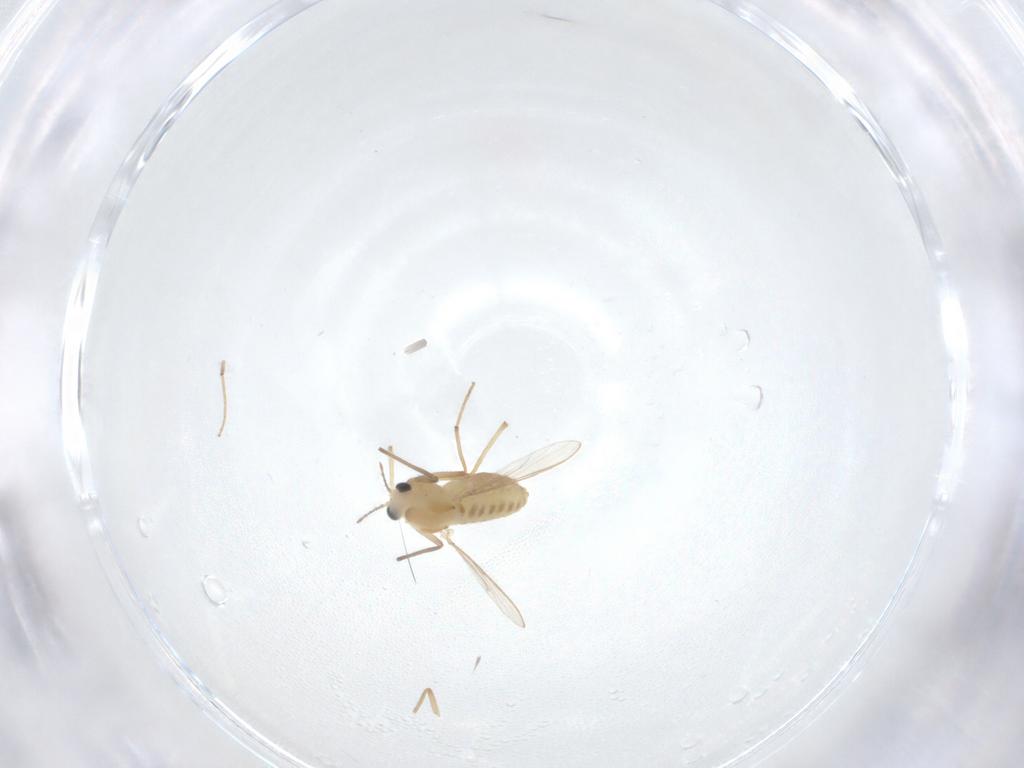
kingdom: Animalia
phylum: Arthropoda
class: Insecta
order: Diptera
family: Chironomidae
